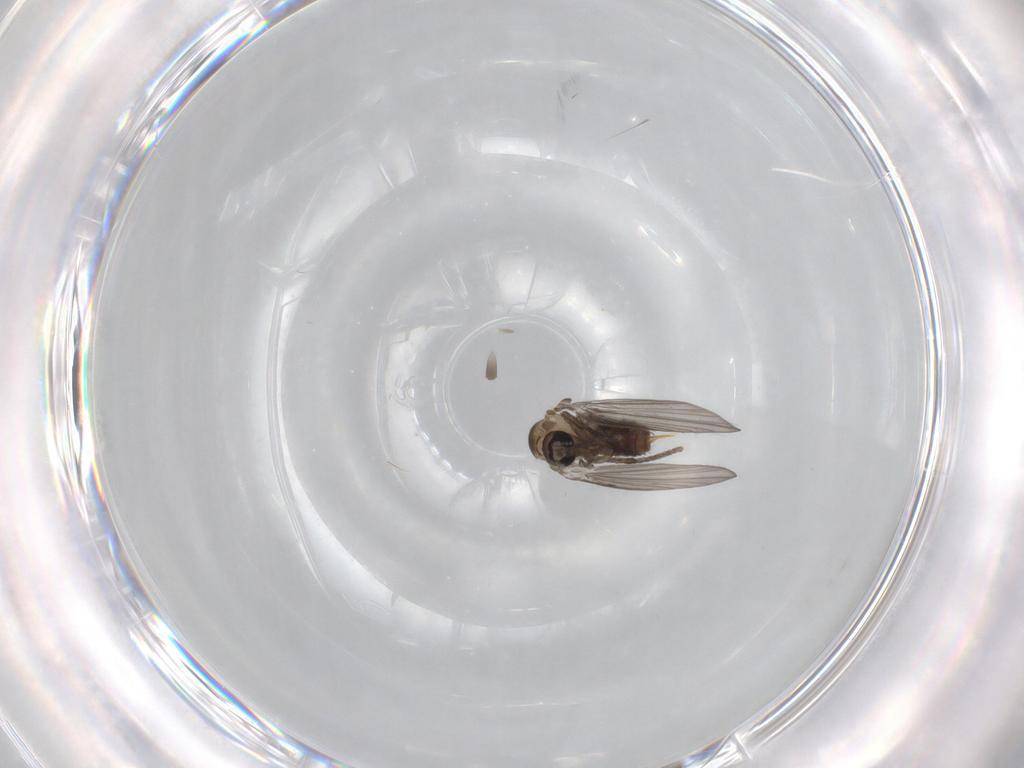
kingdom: Animalia
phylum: Arthropoda
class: Insecta
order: Diptera
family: Psychodidae
